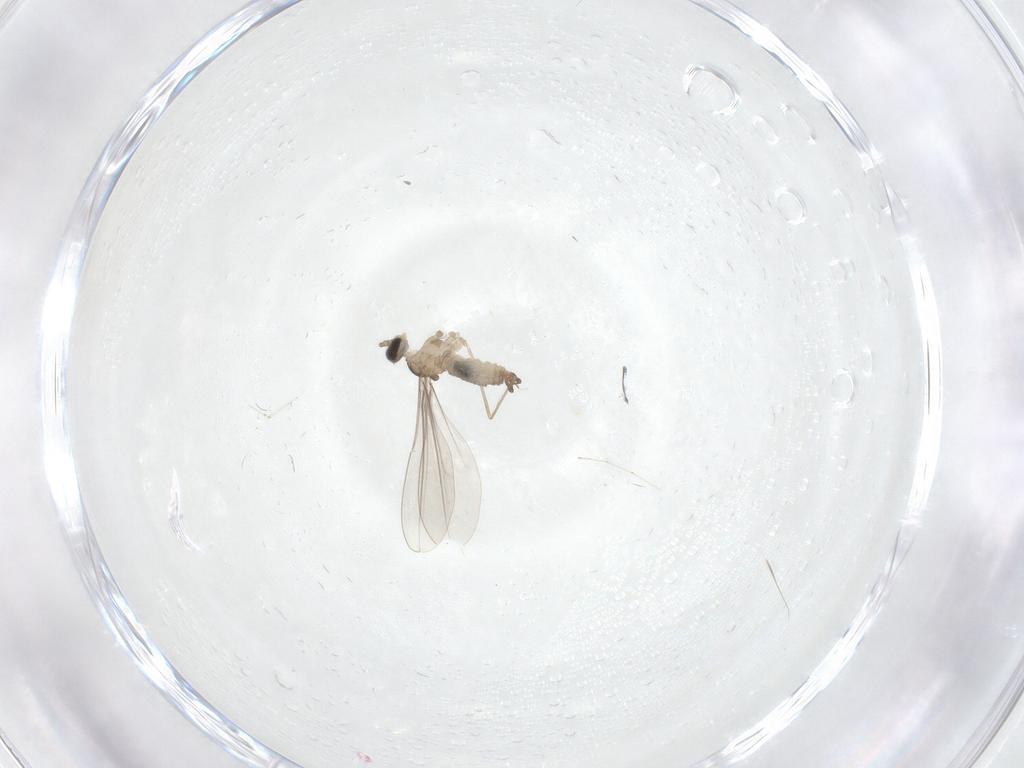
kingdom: Animalia
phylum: Arthropoda
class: Insecta
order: Diptera
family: Cecidomyiidae
